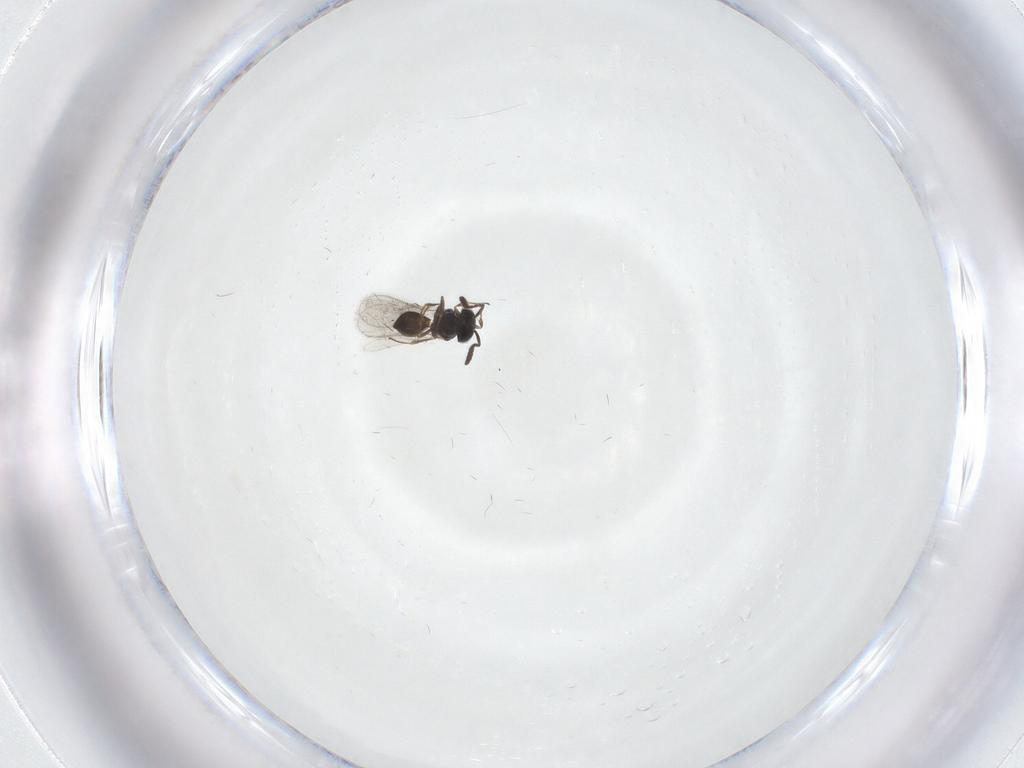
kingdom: Animalia
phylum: Arthropoda
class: Insecta
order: Hymenoptera
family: Scelionidae
